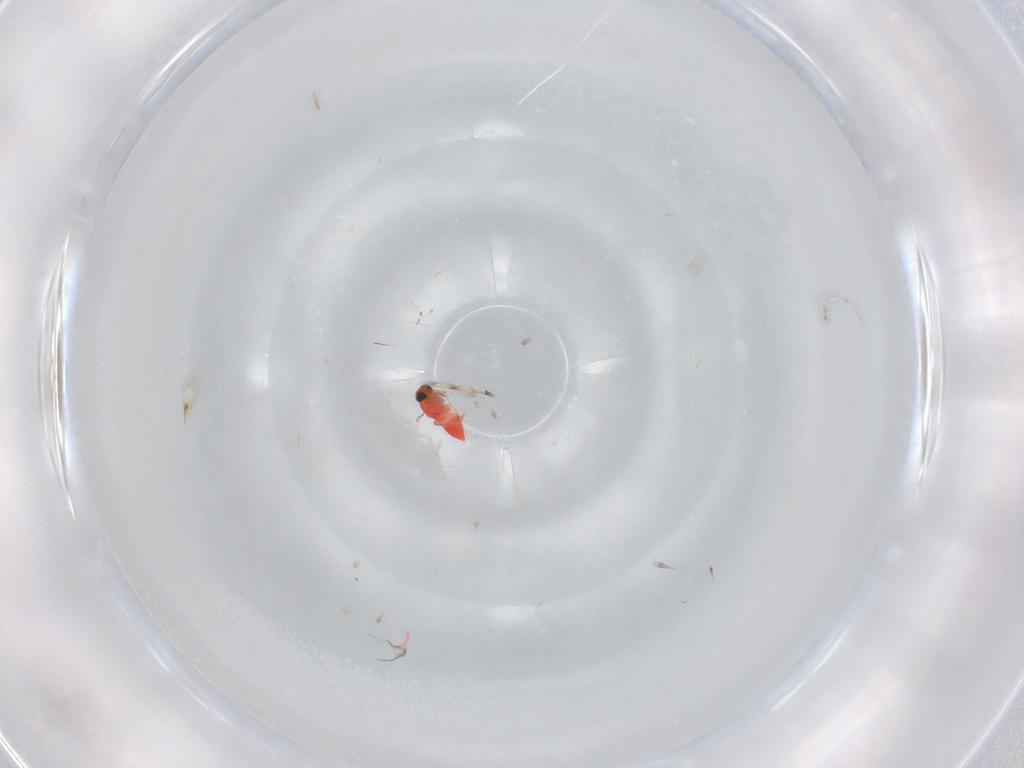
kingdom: Animalia
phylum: Arthropoda
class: Insecta
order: Hymenoptera
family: Trichogrammatidae
